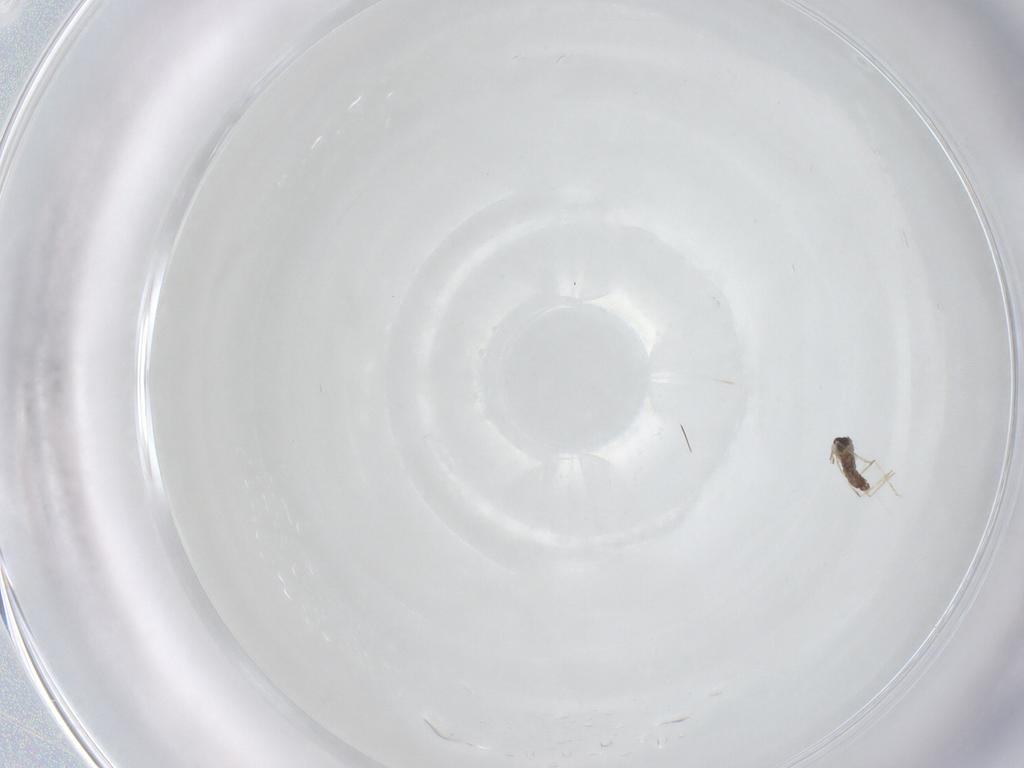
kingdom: Animalia
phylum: Arthropoda
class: Insecta
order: Diptera
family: Cecidomyiidae
